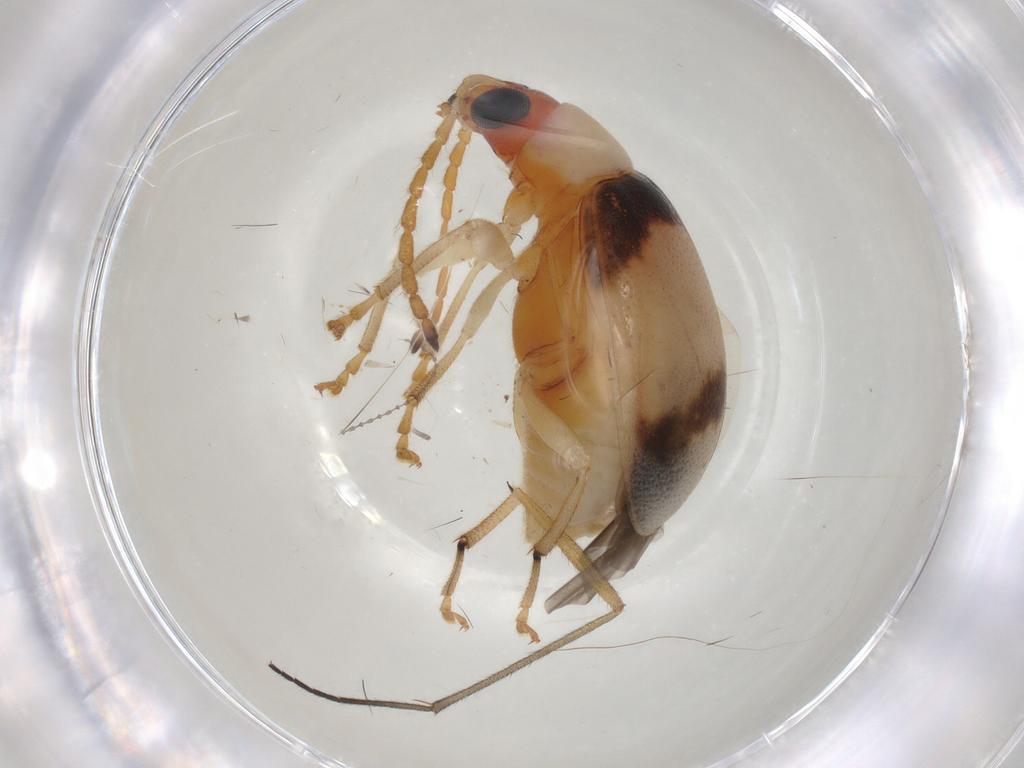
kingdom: Animalia
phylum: Arthropoda
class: Insecta
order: Coleoptera
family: Chrysomelidae
